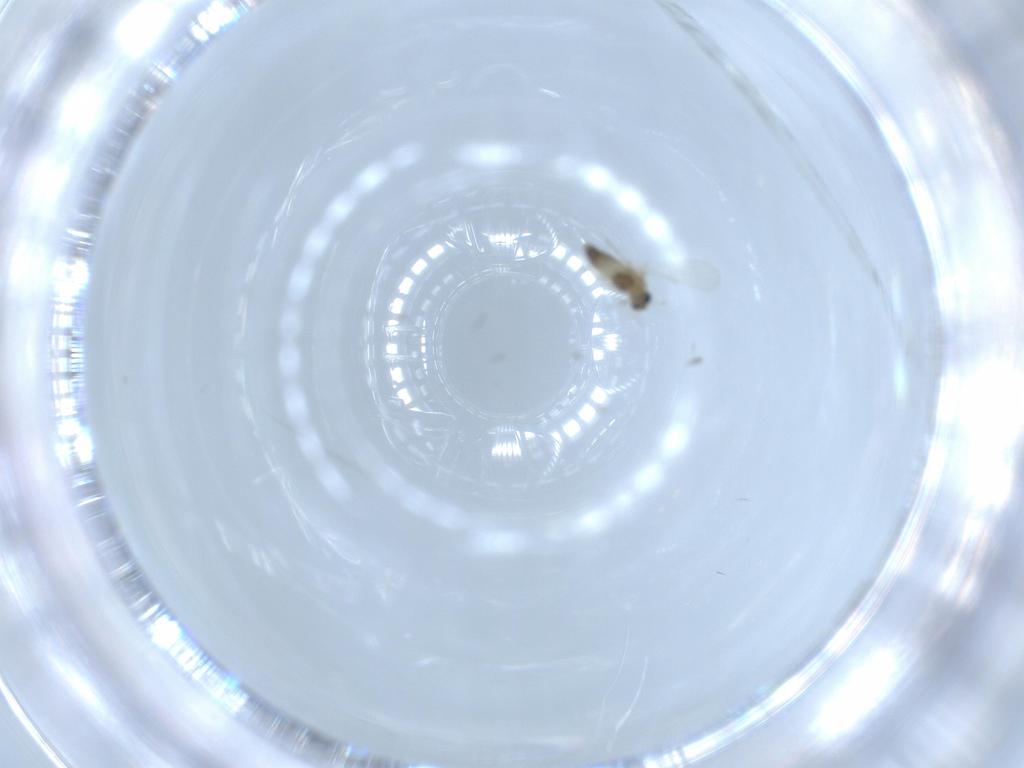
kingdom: Animalia
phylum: Arthropoda
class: Insecta
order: Diptera
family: Chironomidae
